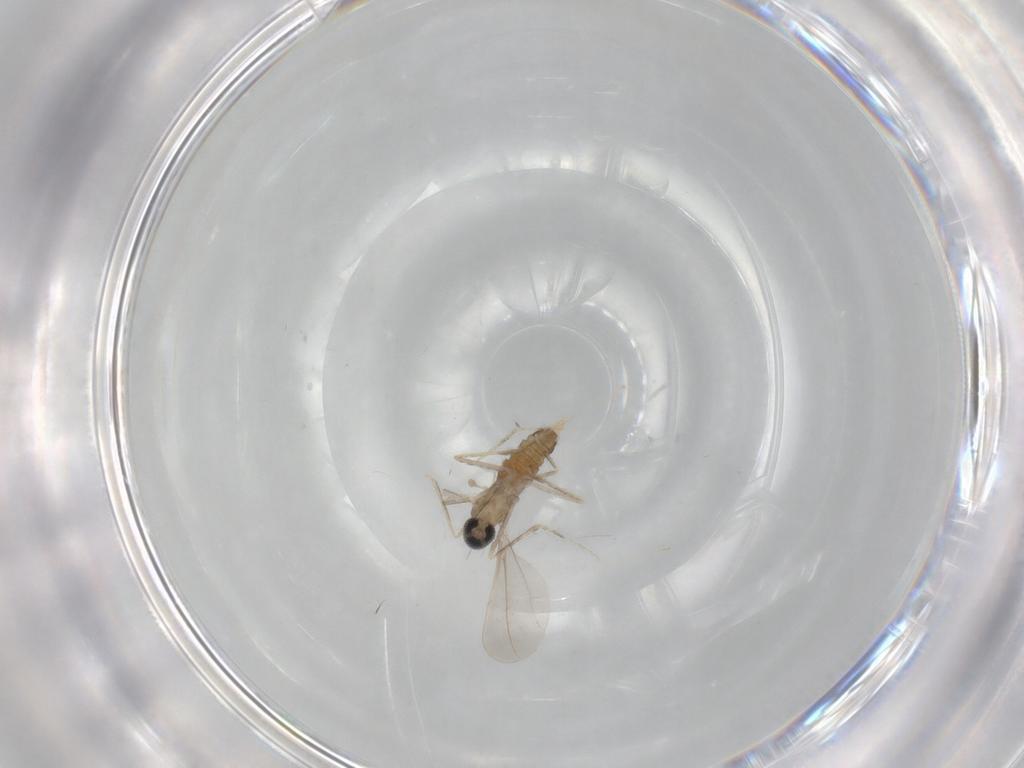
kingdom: Animalia
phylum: Arthropoda
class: Insecta
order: Diptera
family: Cecidomyiidae
